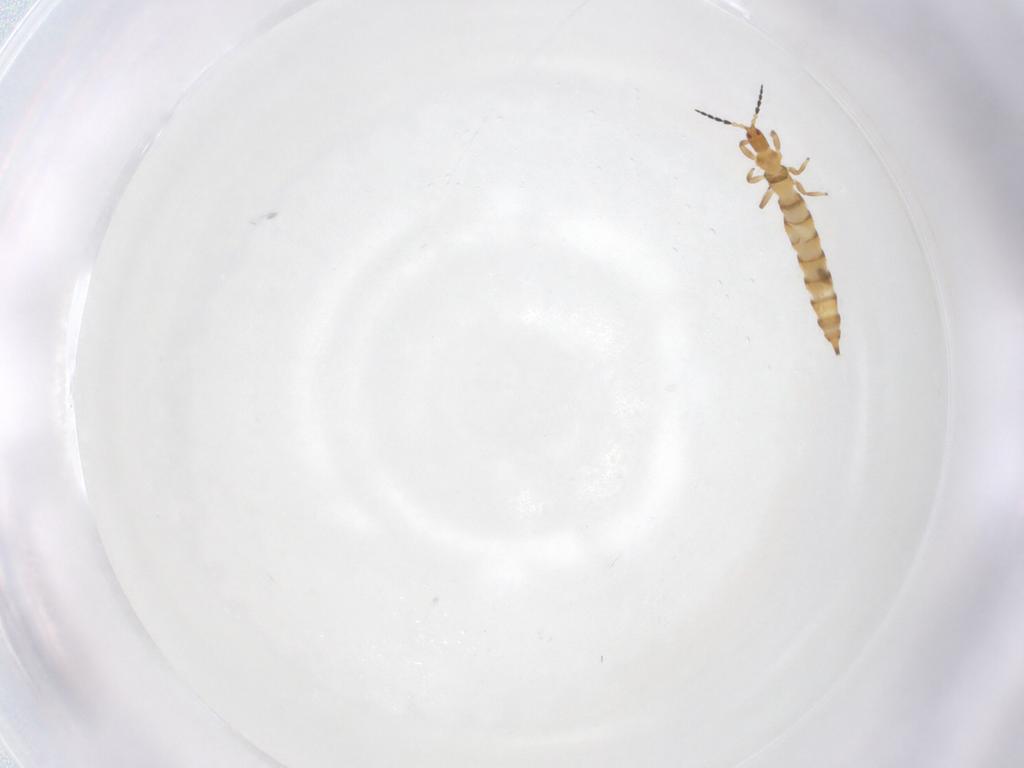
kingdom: Animalia
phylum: Arthropoda
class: Insecta
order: Thysanoptera
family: Phlaeothripidae
